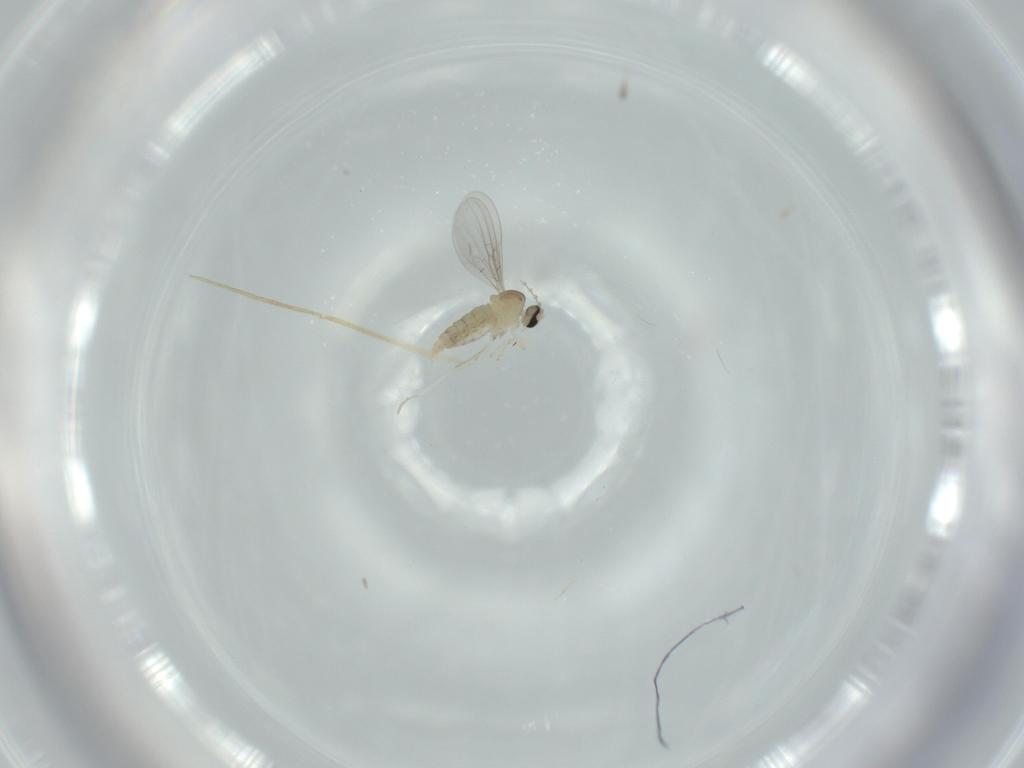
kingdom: Animalia
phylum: Arthropoda
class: Insecta
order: Diptera
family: Cecidomyiidae
